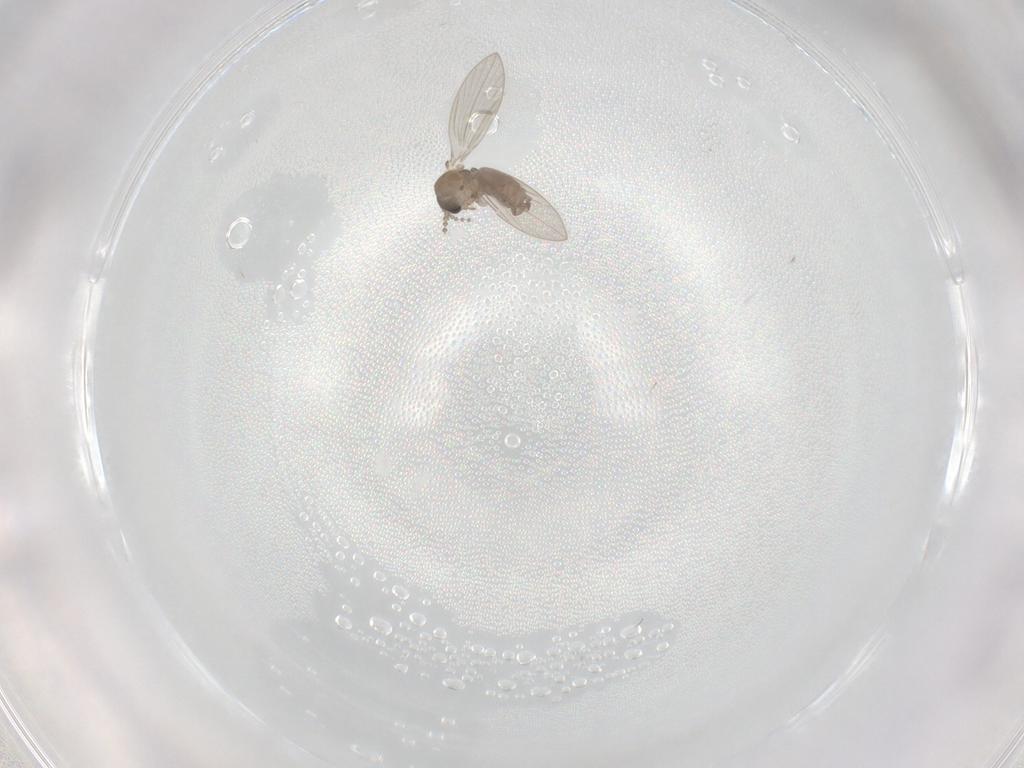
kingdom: Animalia
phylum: Arthropoda
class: Insecta
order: Diptera
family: Psychodidae
